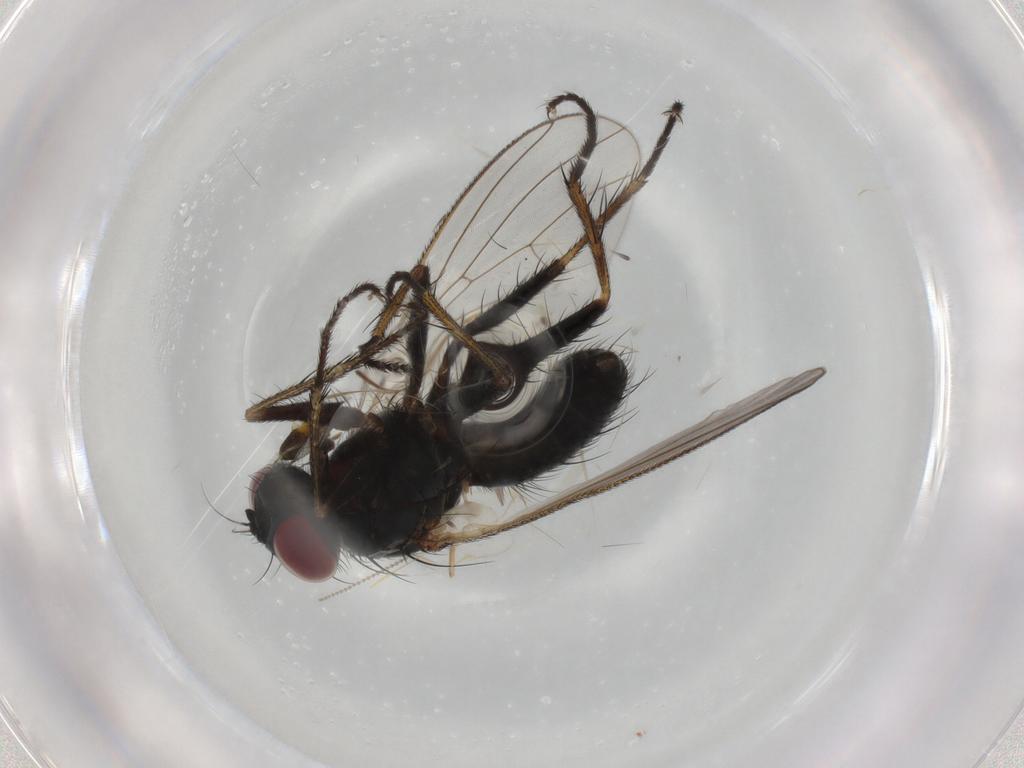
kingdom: Animalia
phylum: Arthropoda
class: Insecta
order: Diptera
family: Muscidae
